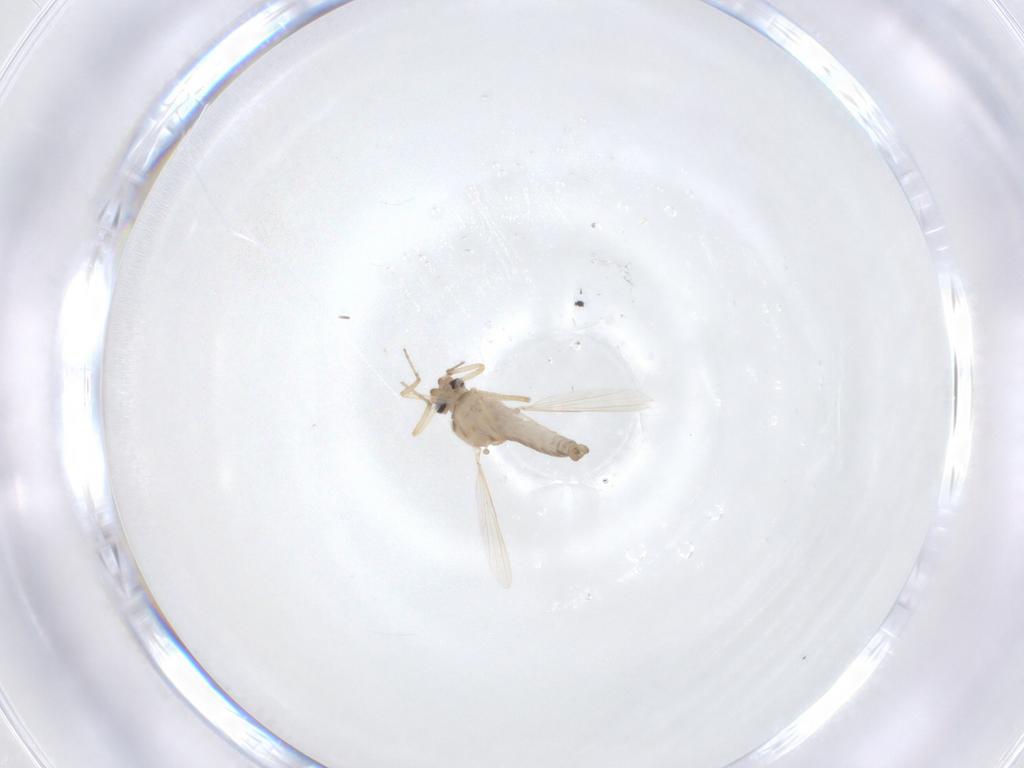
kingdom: Animalia
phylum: Arthropoda
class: Insecta
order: Diptera
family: Ceratopogonidae
